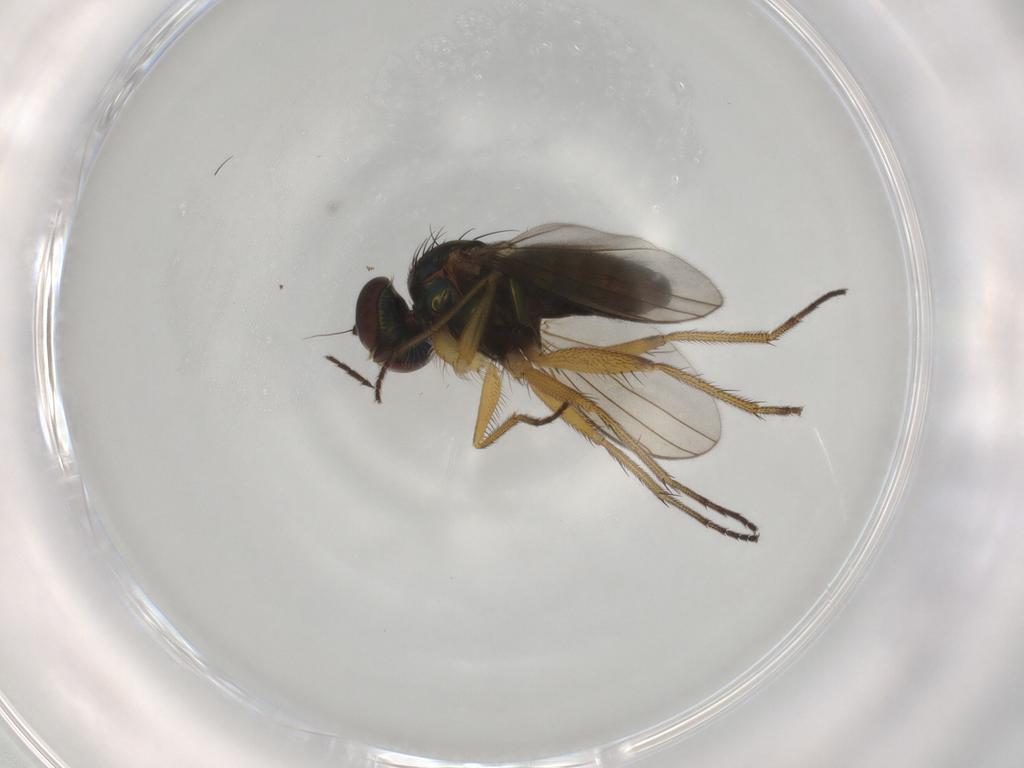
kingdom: Animalia
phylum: Arthropoda
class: Insecta
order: Diptera
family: Dolichopodidae
